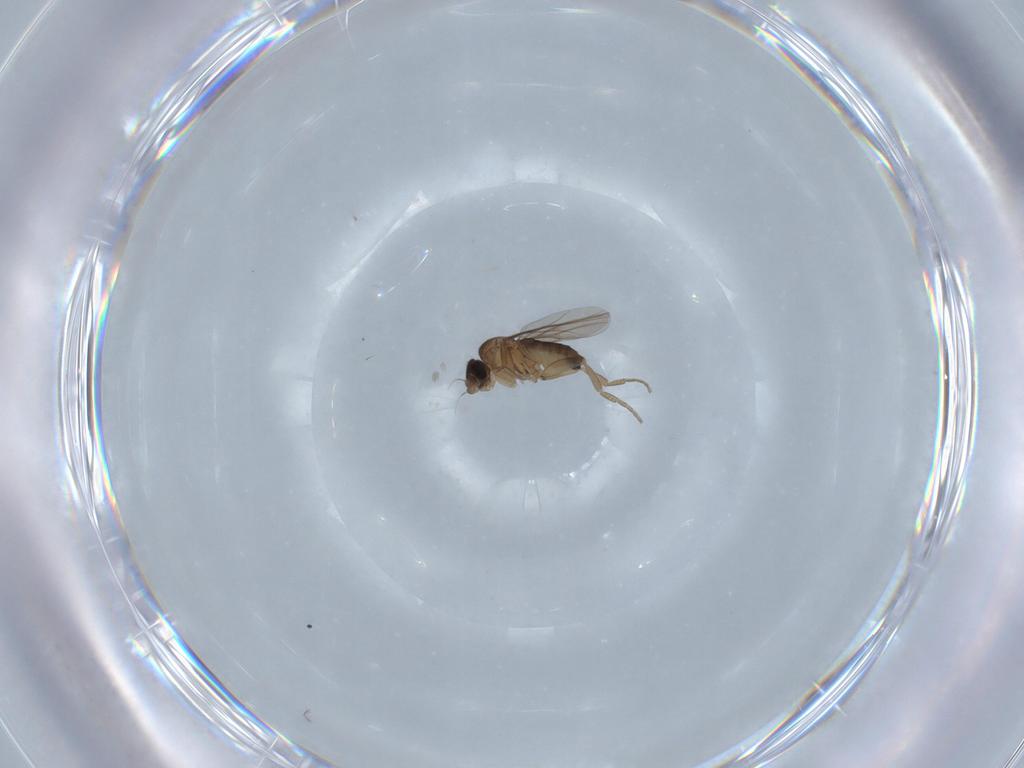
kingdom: Animalia
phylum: Arthropoda
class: Insecta
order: Diptera
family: Phoridae
